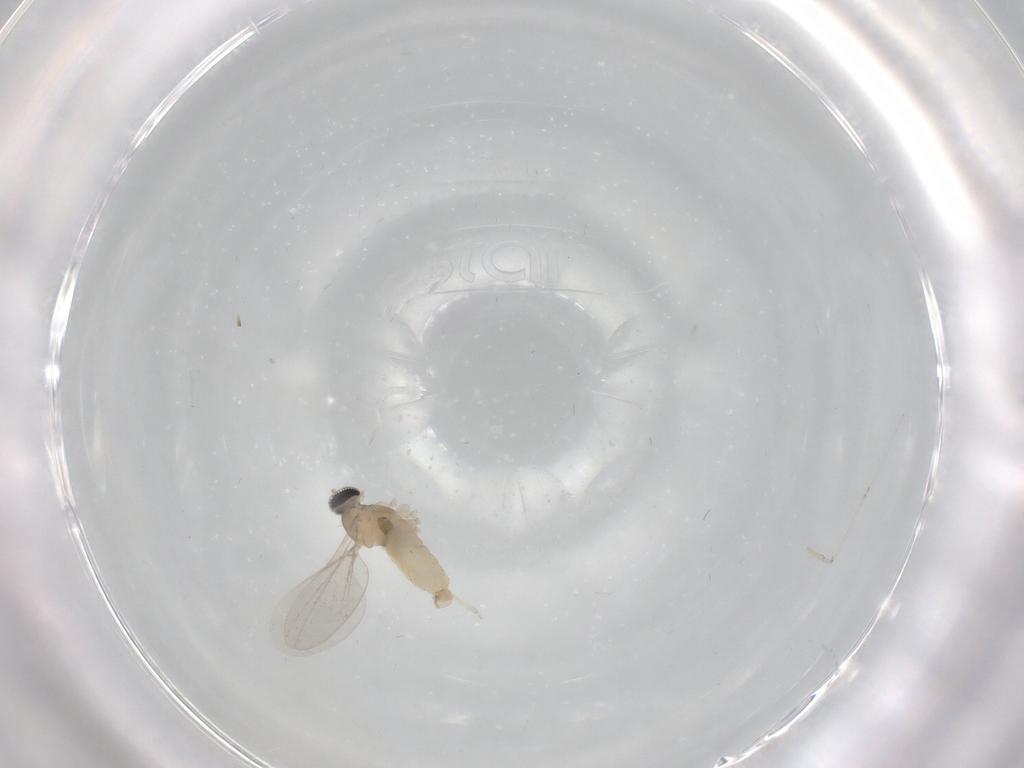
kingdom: Animalia
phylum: Arthropoda
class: Insecta
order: Diptera
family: Cecidomyiidae
